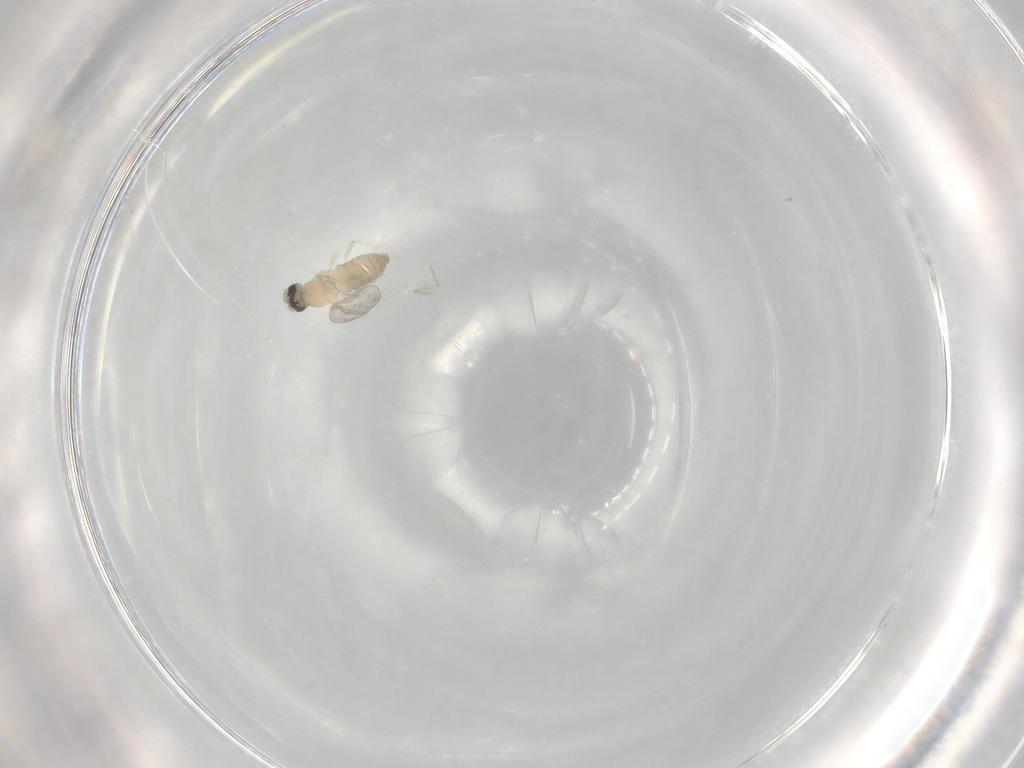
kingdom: Animalia
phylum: Arthropoda
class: Insecta
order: Diptera
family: Cecidomyiidae
